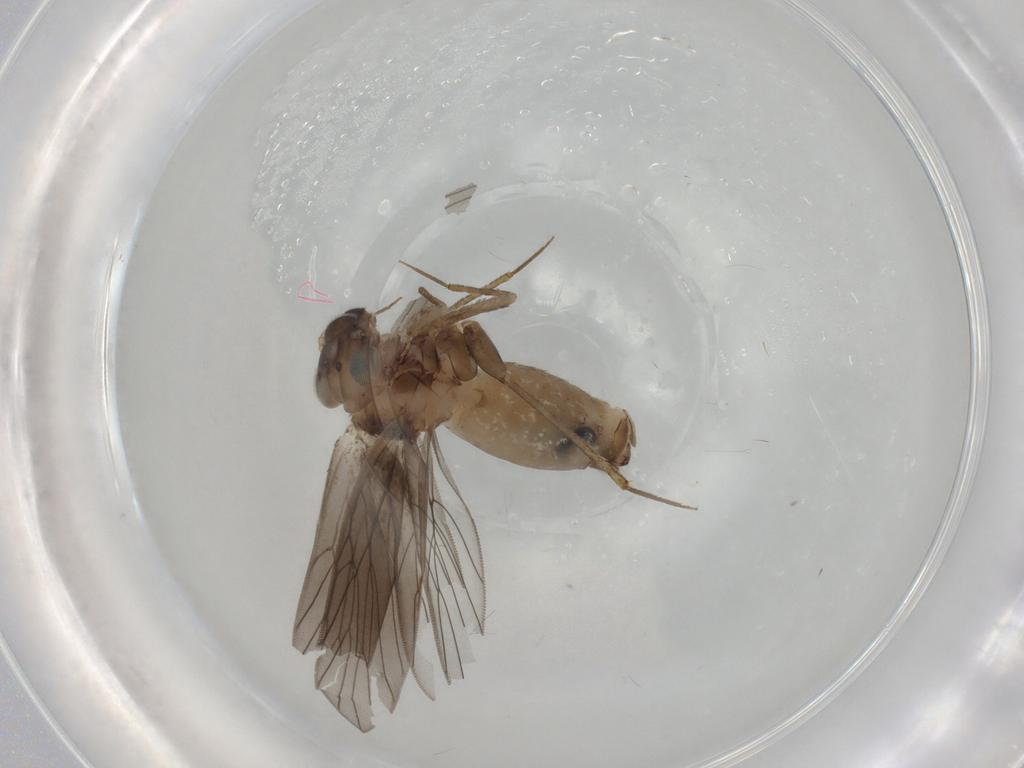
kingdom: Animalia
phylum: Arthropoda
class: Insecta
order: Psocodea
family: Lepidopsocidae
